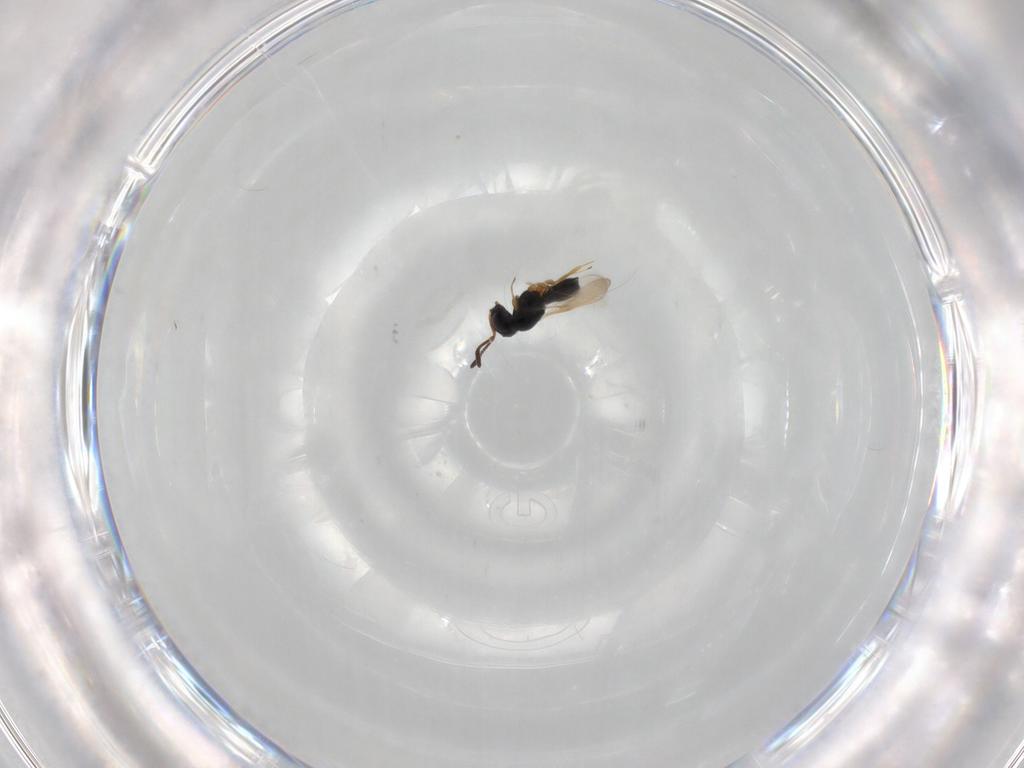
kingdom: Animalia
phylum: Arthropoda
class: Insecta
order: Hymenoptera
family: Scelionidae
